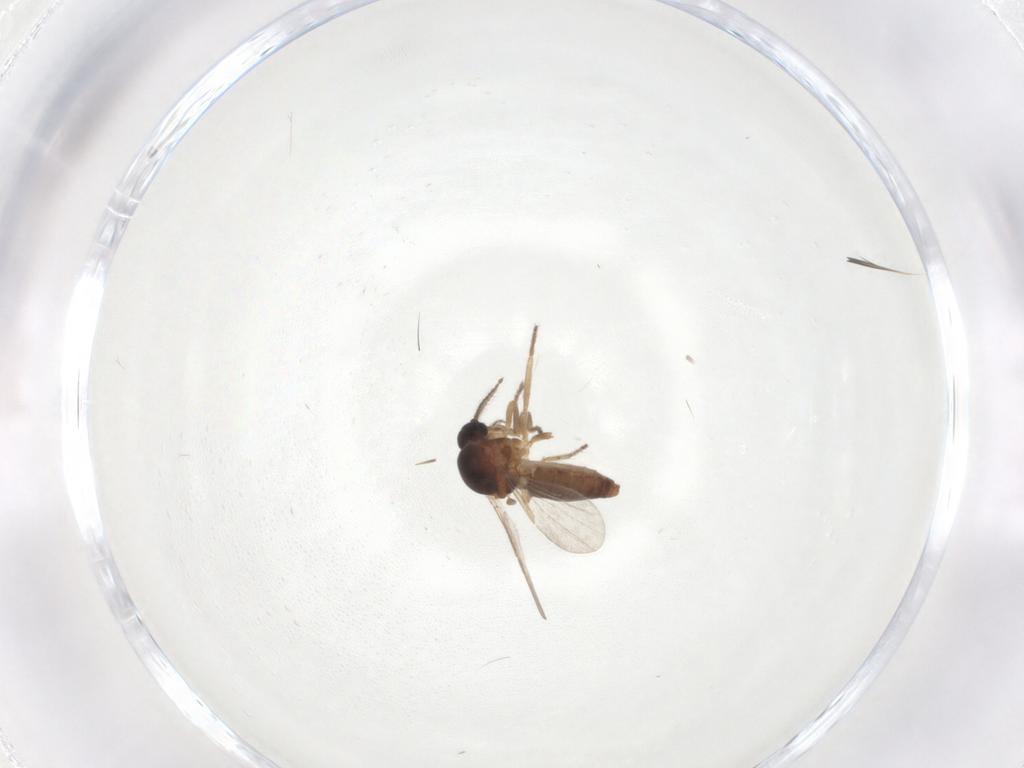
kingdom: Animalia
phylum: Arthropoda
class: Insecta
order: Diptera
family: Ceratopogonidae
